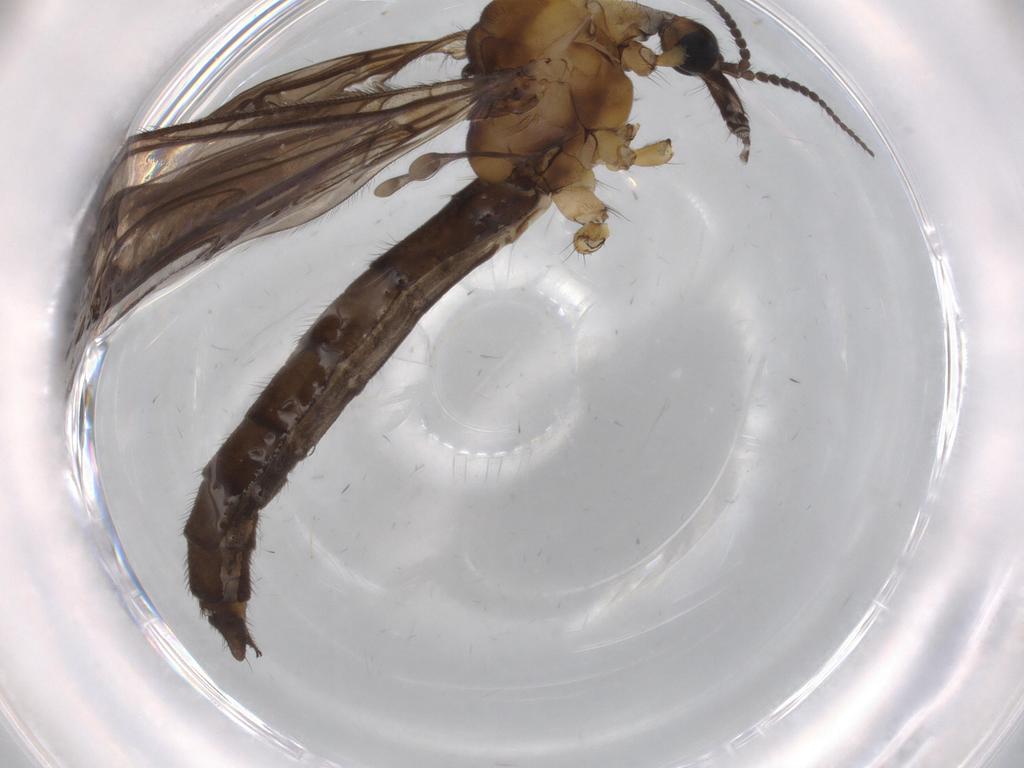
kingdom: Animalia
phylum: Arthropoda
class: Insecta
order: Diptera
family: Limoniidae
